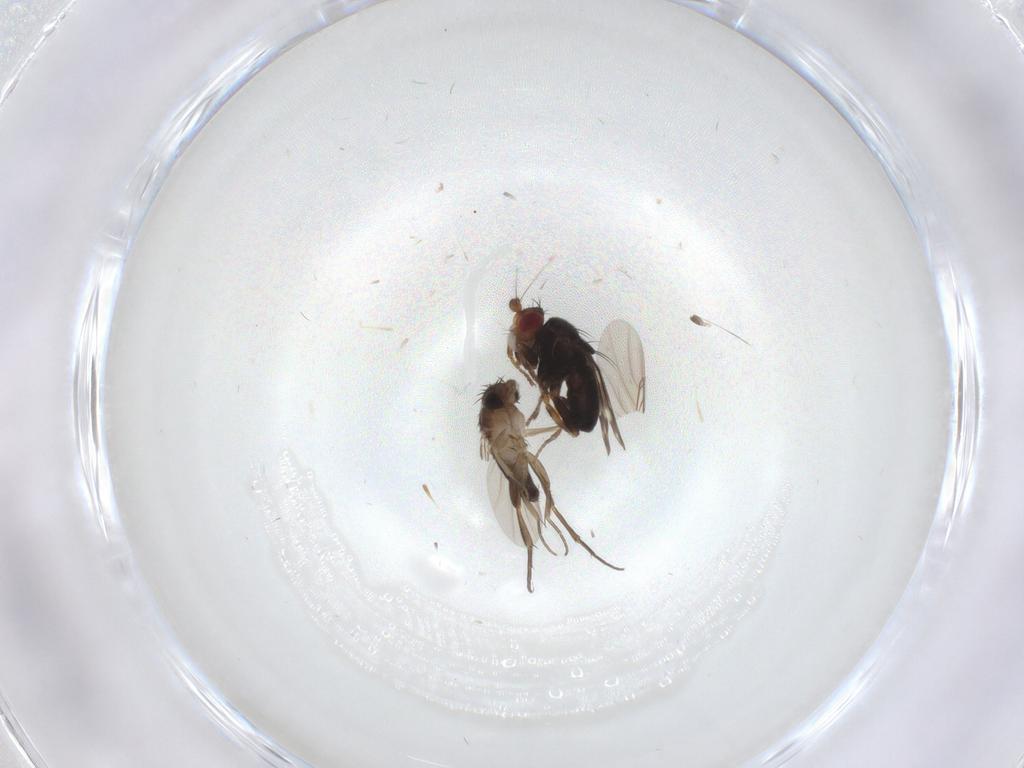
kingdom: Animalia
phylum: Arthropoda
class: Insecta
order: Diptera
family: Phoridae
